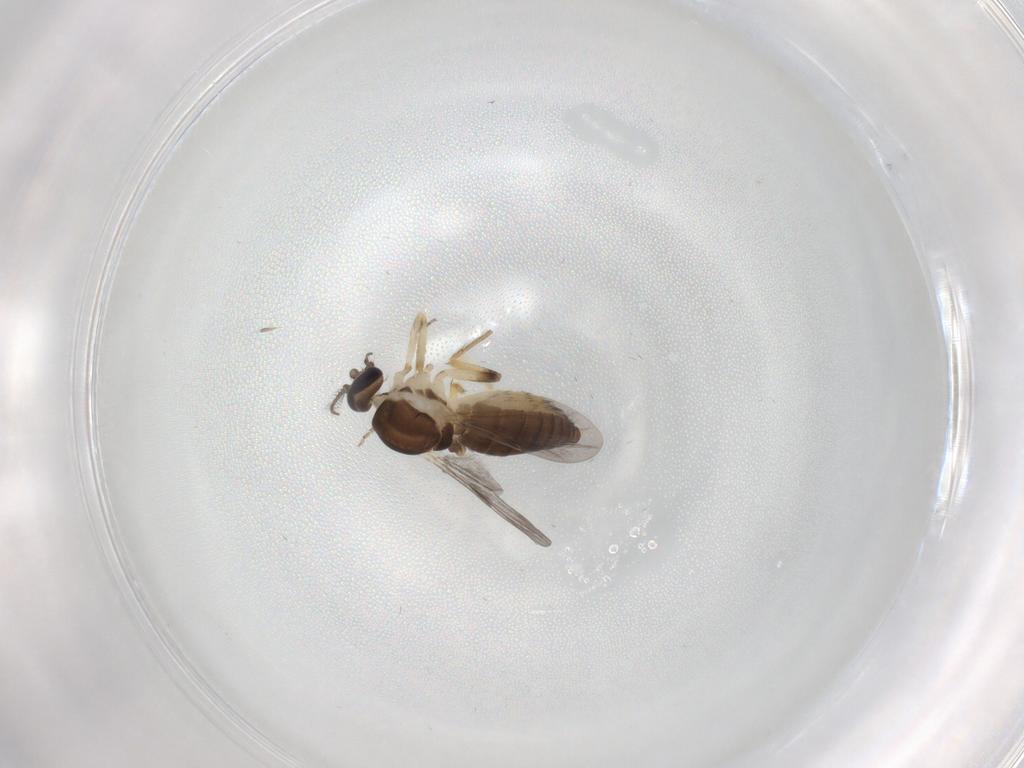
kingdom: Animalia
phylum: Arthropoda
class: Insecta
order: Diptera
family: Ceratopogonidae
